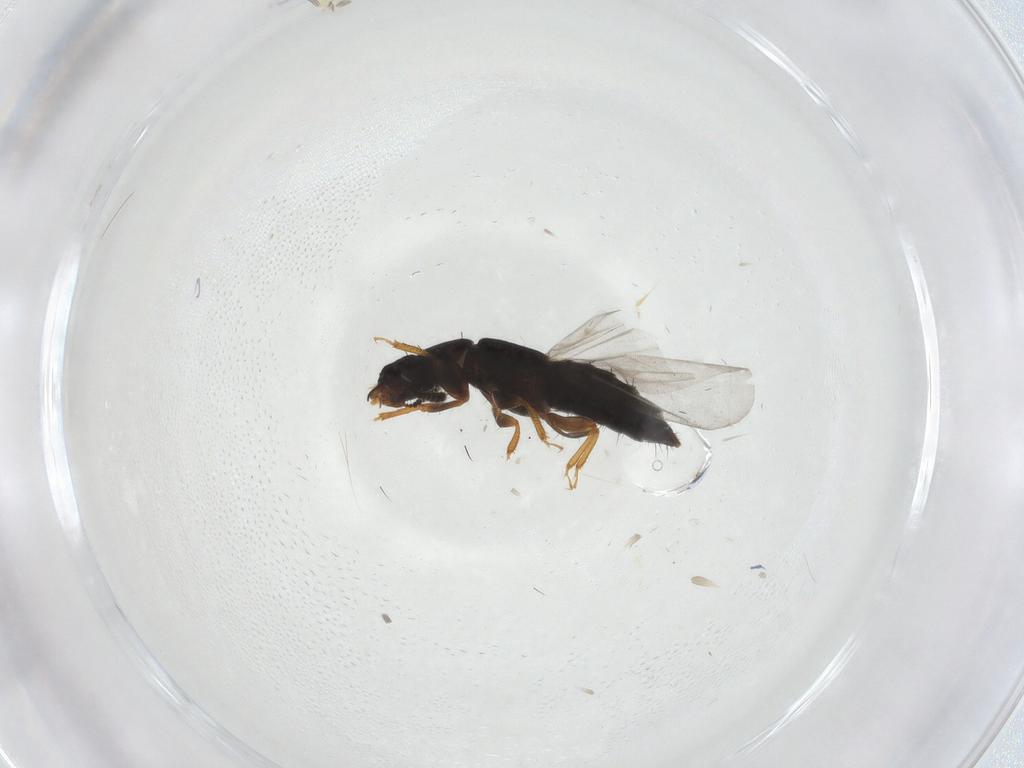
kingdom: Animalia
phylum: Arthropoda
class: Insecta
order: Coleoptera
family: Staphylinidae
